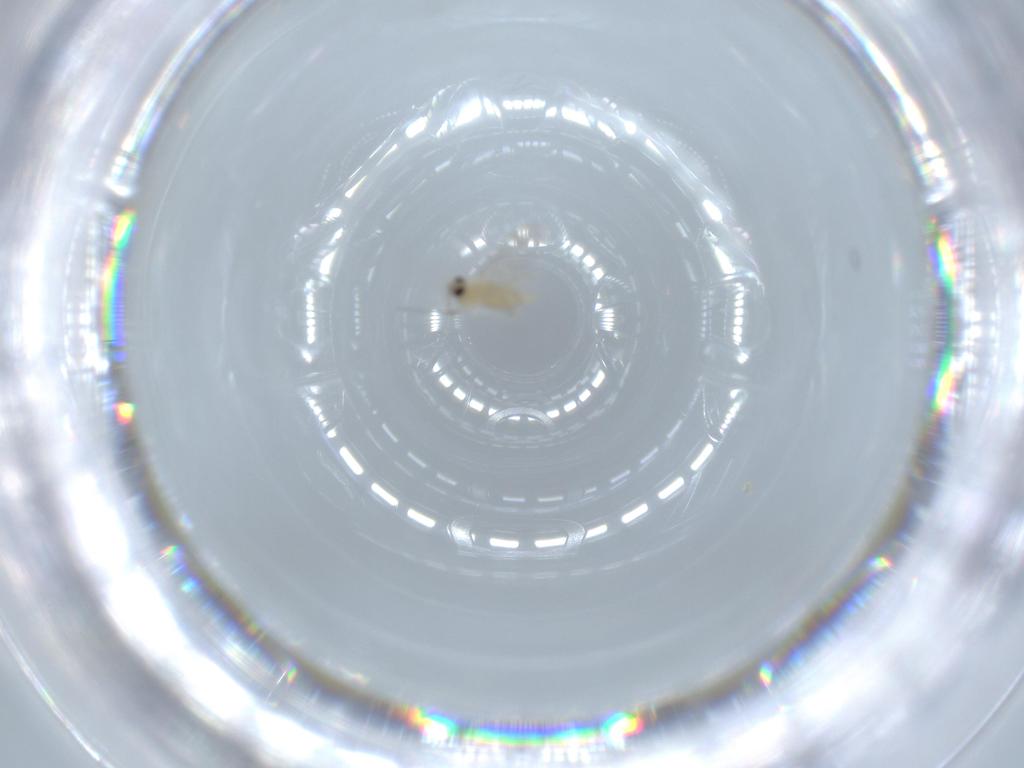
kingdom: Animalia
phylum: Arthropoda
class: Insecta
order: Diptera
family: Cecidomyiidae
